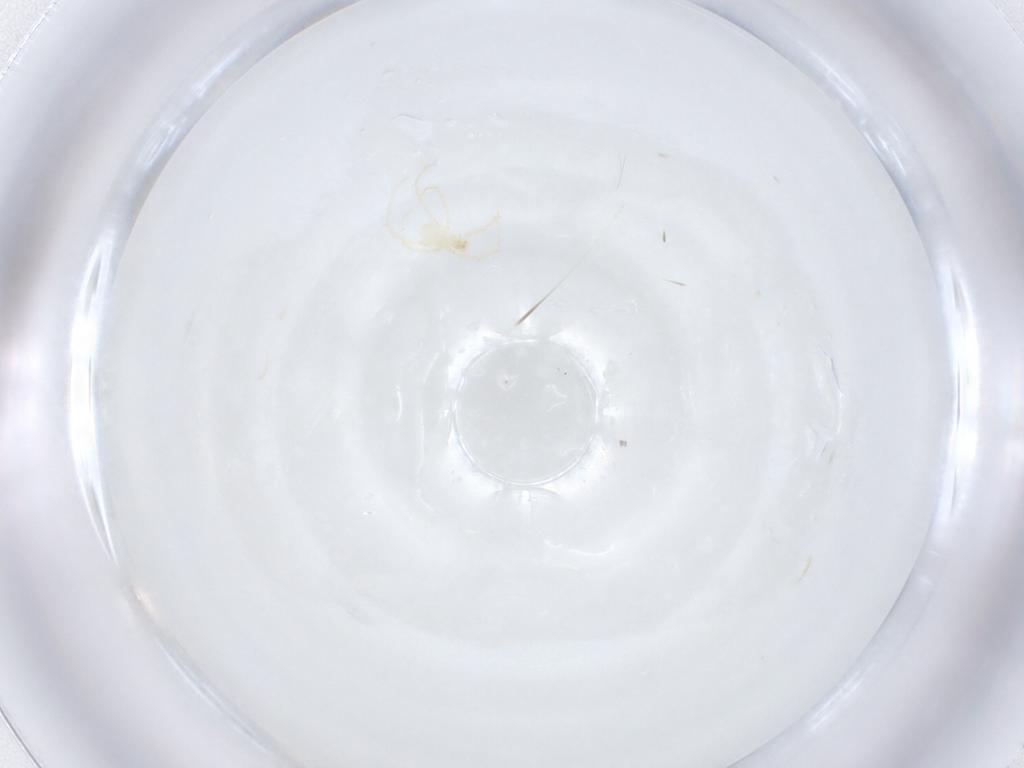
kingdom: Animalia
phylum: Arthropoda
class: Arachnida
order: Trombidiformes
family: Erythraeidae
